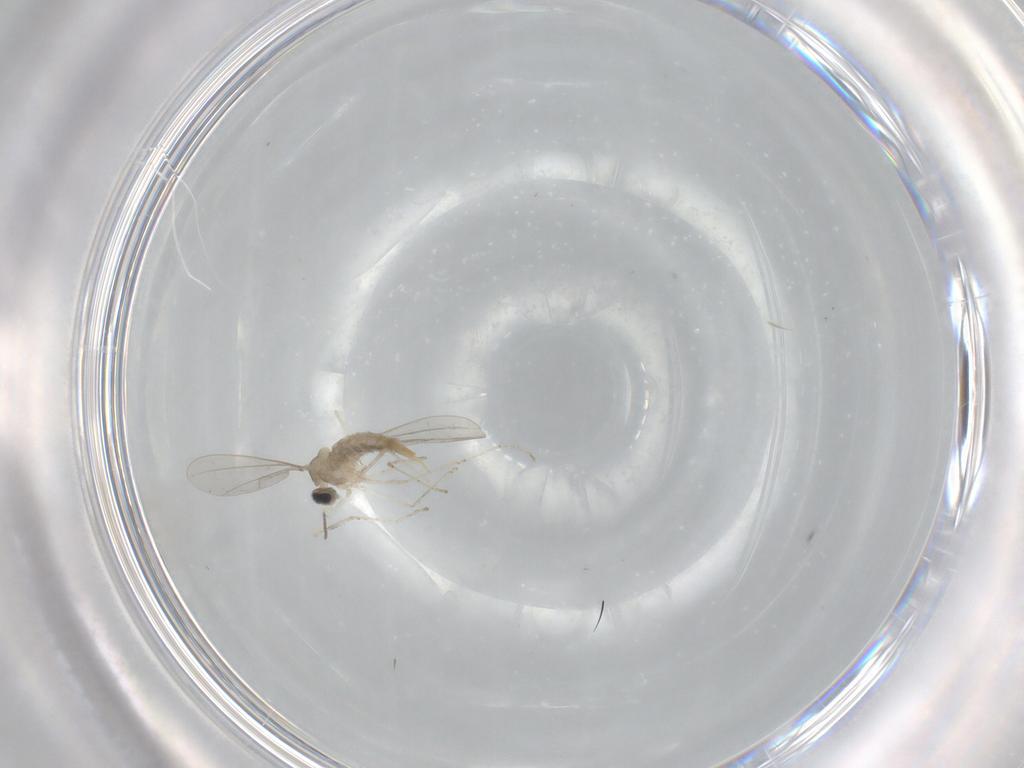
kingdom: Animalia
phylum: Arthropoda
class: Insecta
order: Diptera
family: Cecidomyiidae
